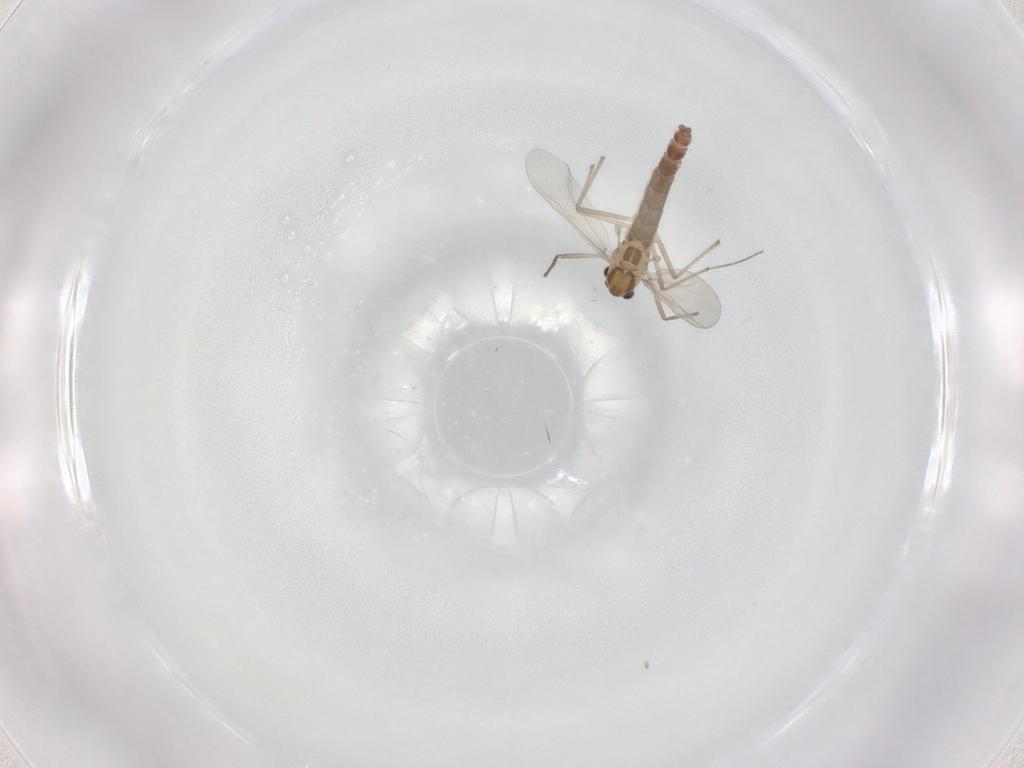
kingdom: Animalia
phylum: Arthropoda
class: Insecta
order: Diptera
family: Chironomidae
